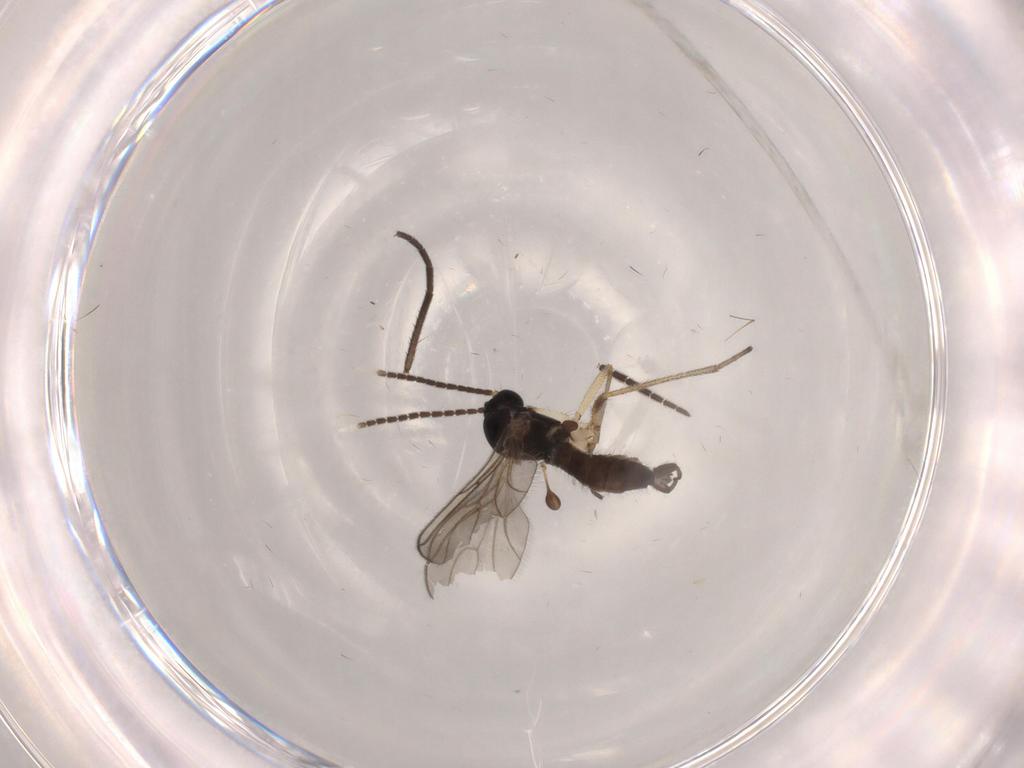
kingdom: Animalia
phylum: Arthropoda
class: Insecta
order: Diptera
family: Sciaridae
